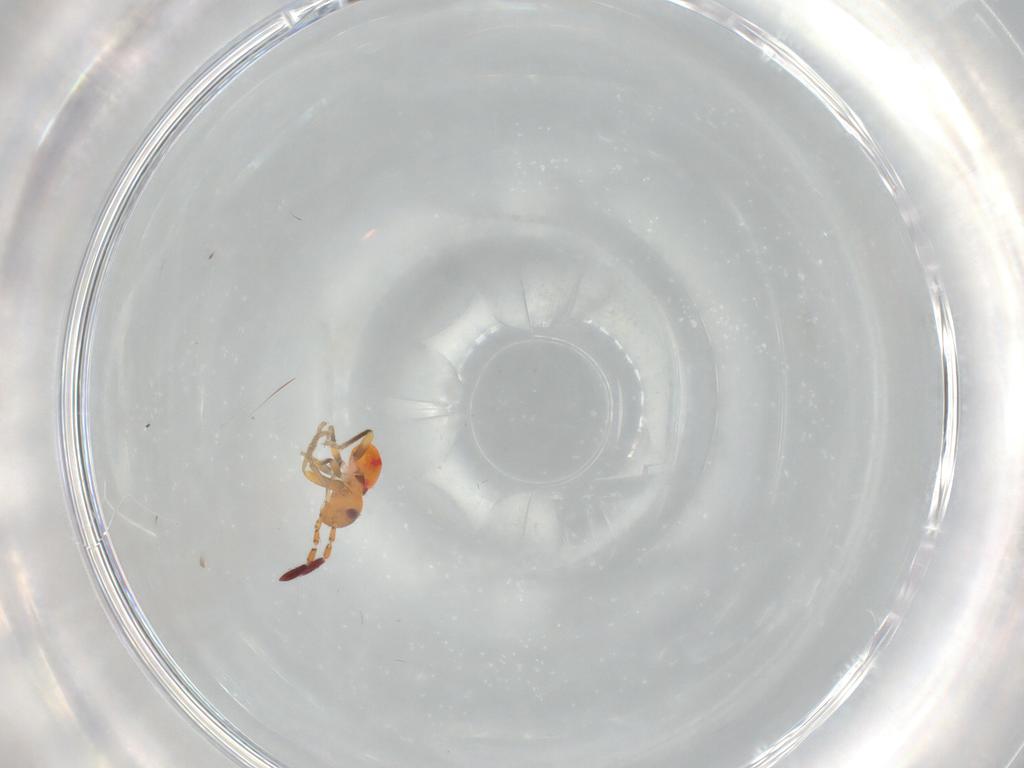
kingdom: Animalia
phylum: Arthropoda
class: Insecta
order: Hemiptera
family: Rhyparochromidae
